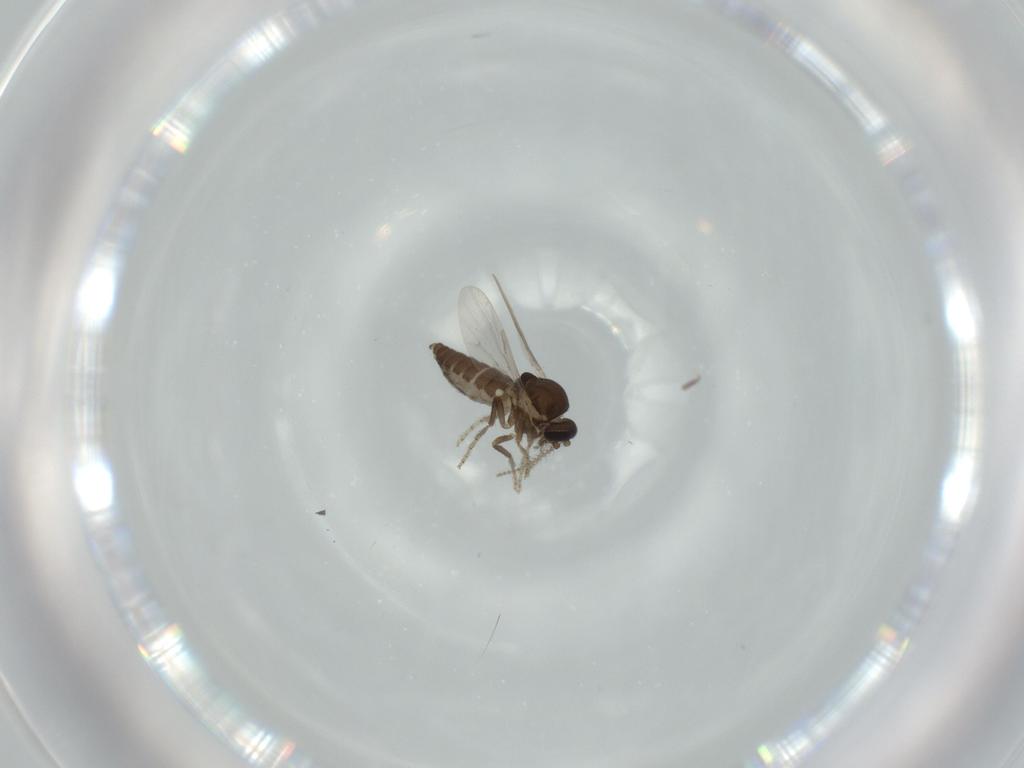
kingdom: Animalia
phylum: Arthropoda
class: Insecta
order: Diptera
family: Ceratopogonidae
